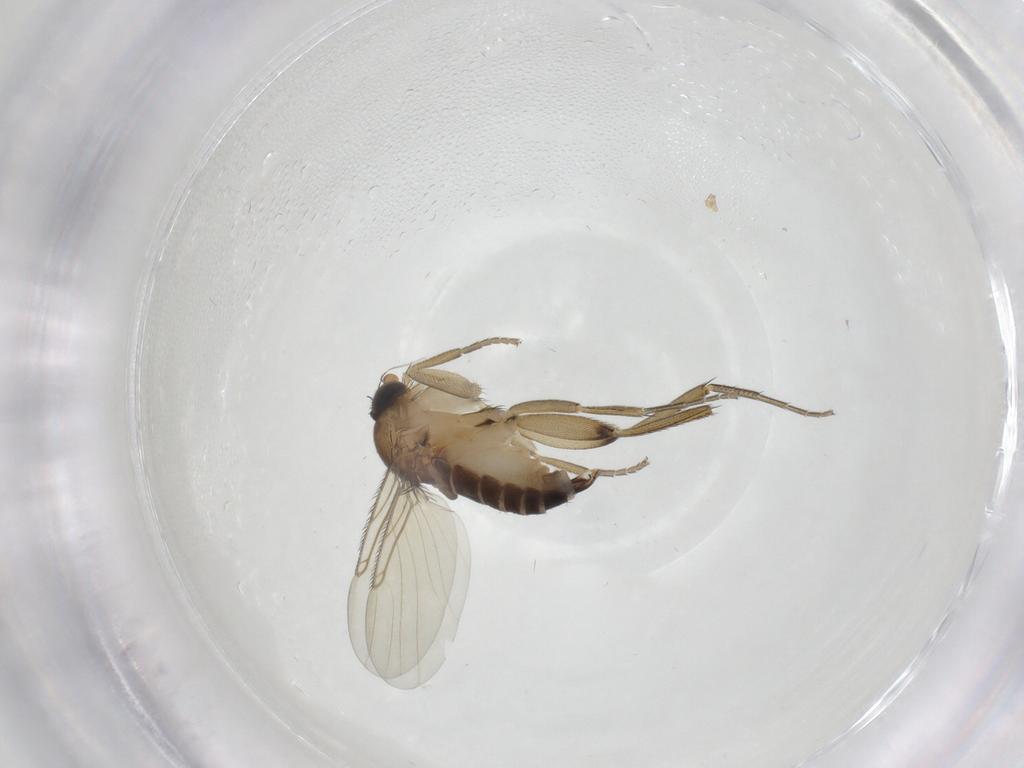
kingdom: Animalia
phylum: Arthropoda
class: Insecta
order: Diptera
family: Phoridae
